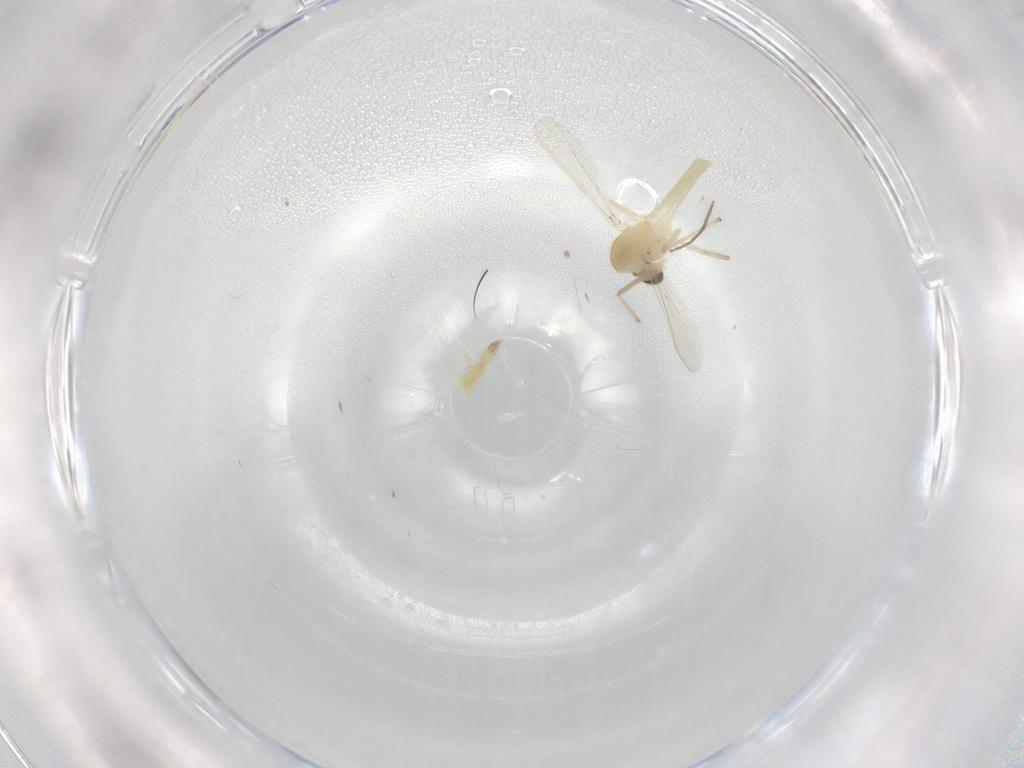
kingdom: Animalia
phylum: Arthropoda
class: Insecta
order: Diptera
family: Chironomidae
